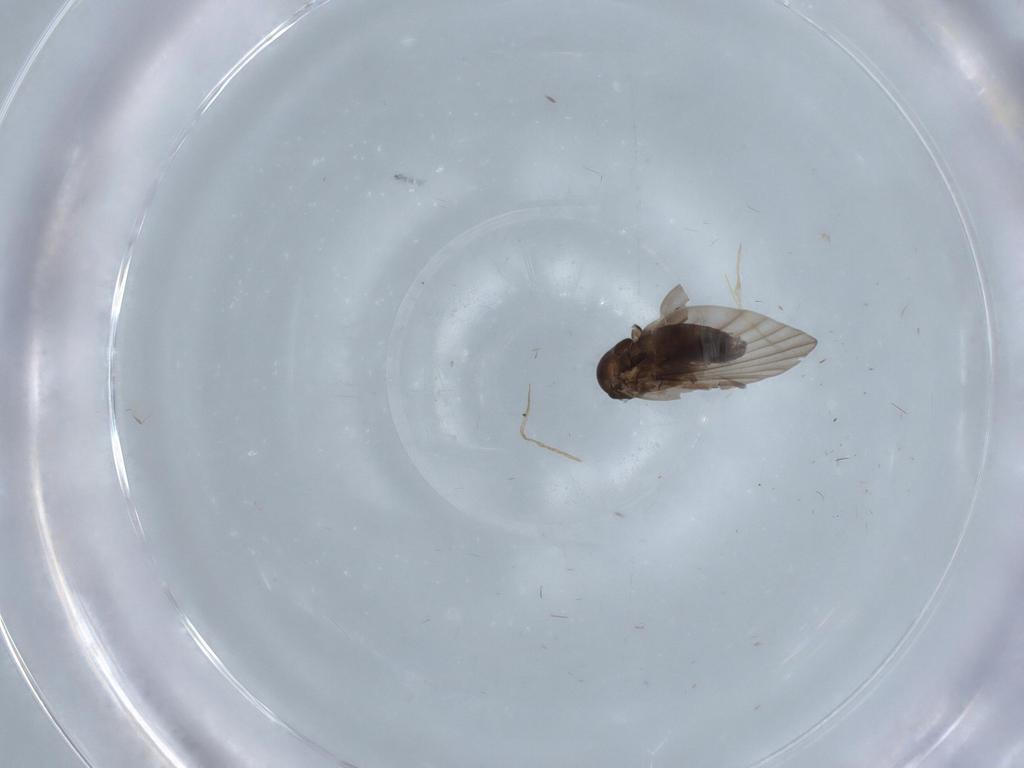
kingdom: Animalia
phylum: Arthropoda
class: Insecta
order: Diptera
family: Psychodidae
